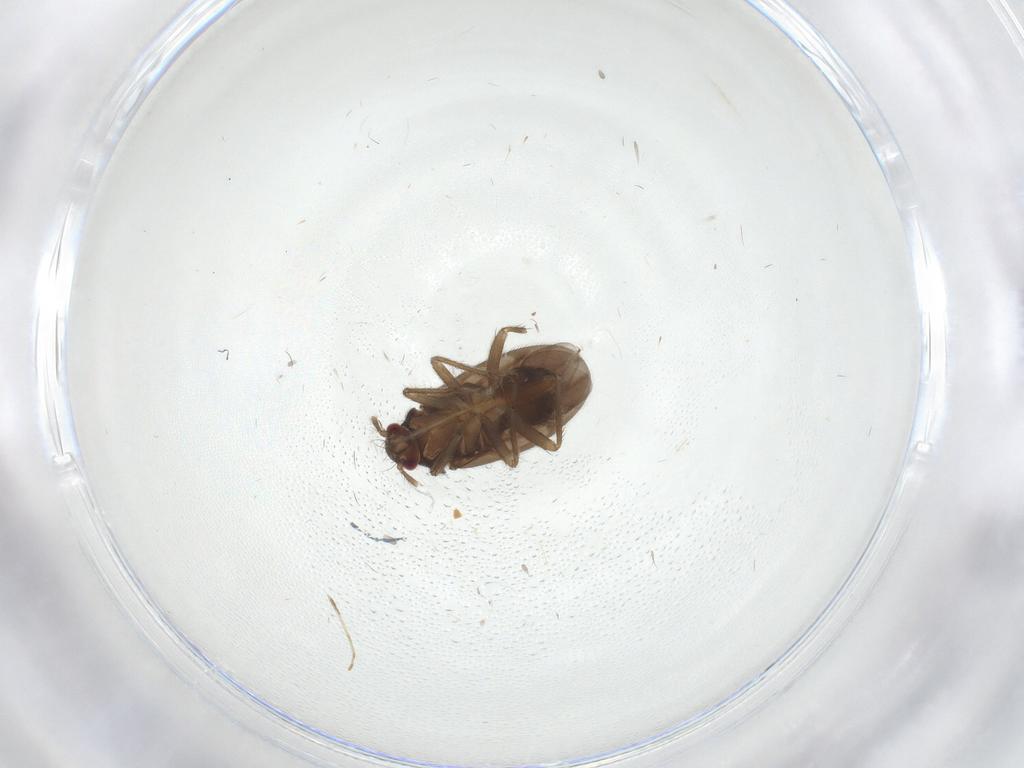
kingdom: Animalia
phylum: Arthropoda
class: Insecta
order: Hemiptera
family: Ceratocombidae
